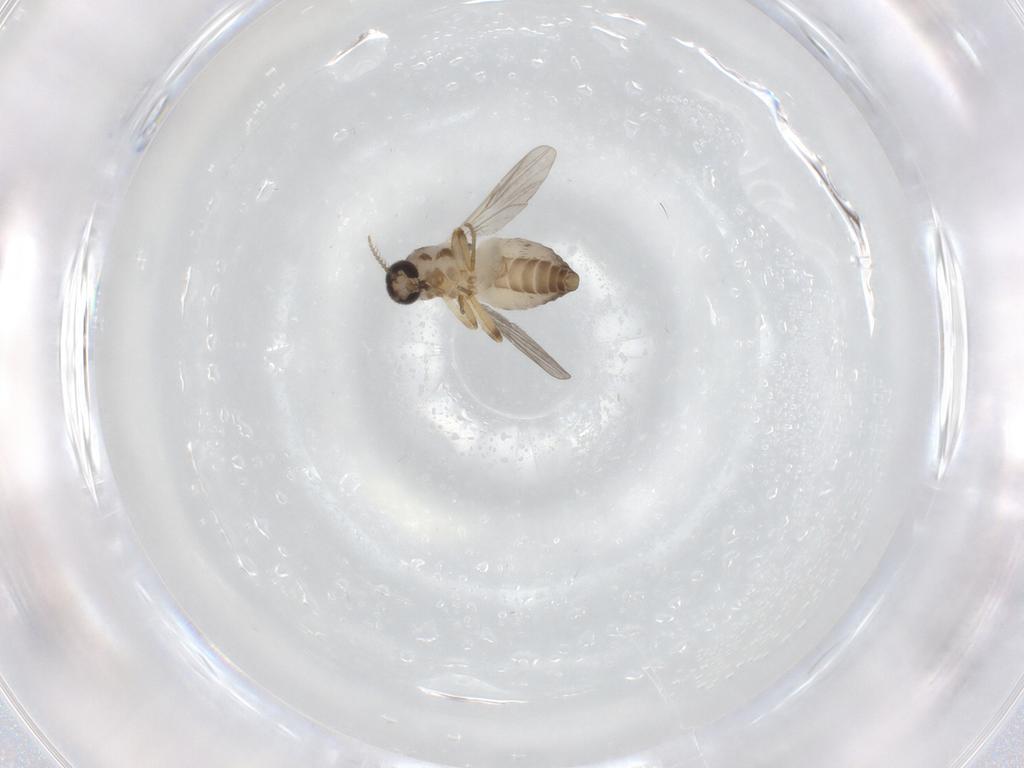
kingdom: Animalia
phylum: Arthropoda
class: Insecta
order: Diptera
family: Ceratopogonidae
